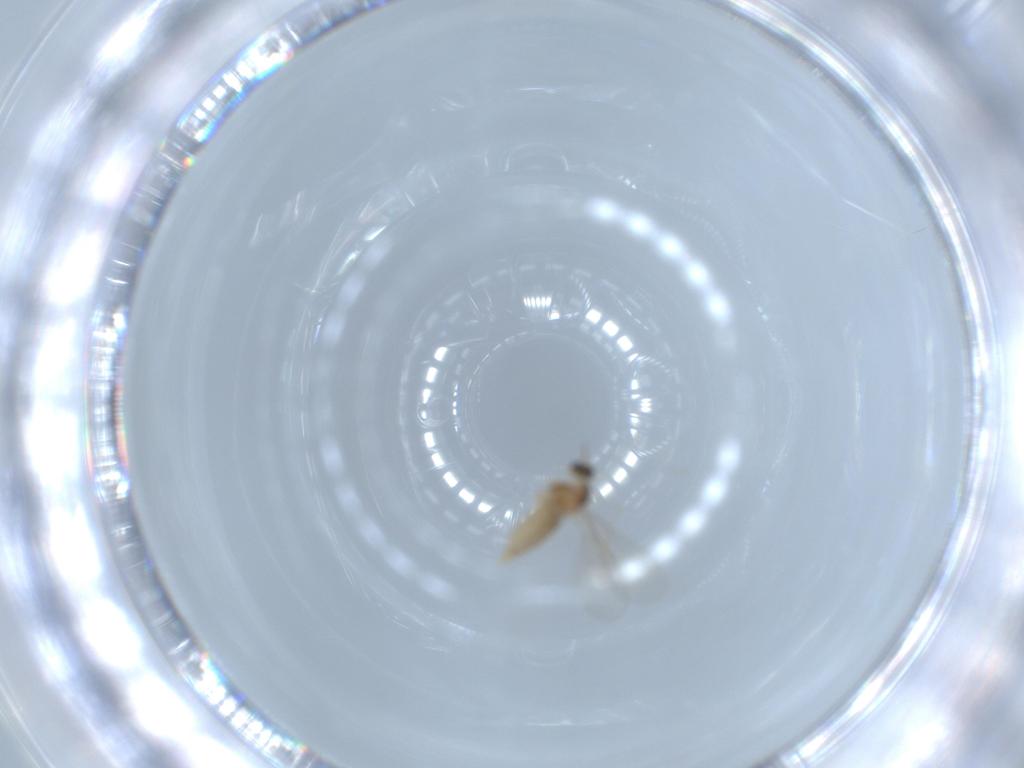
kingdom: Animalia
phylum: Arthropoda
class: Insecta
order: Diptera
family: Cecidomyiidae
